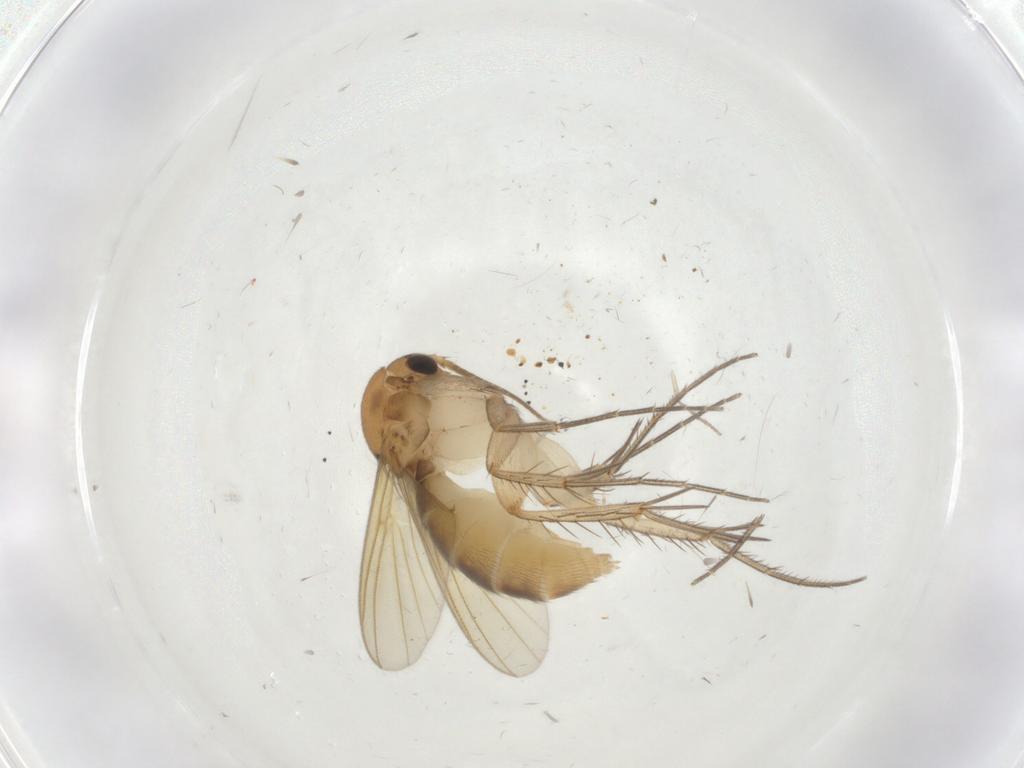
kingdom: Animalia
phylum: Arthropoda
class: Insecta
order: Diptera
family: Mycetophilidae
